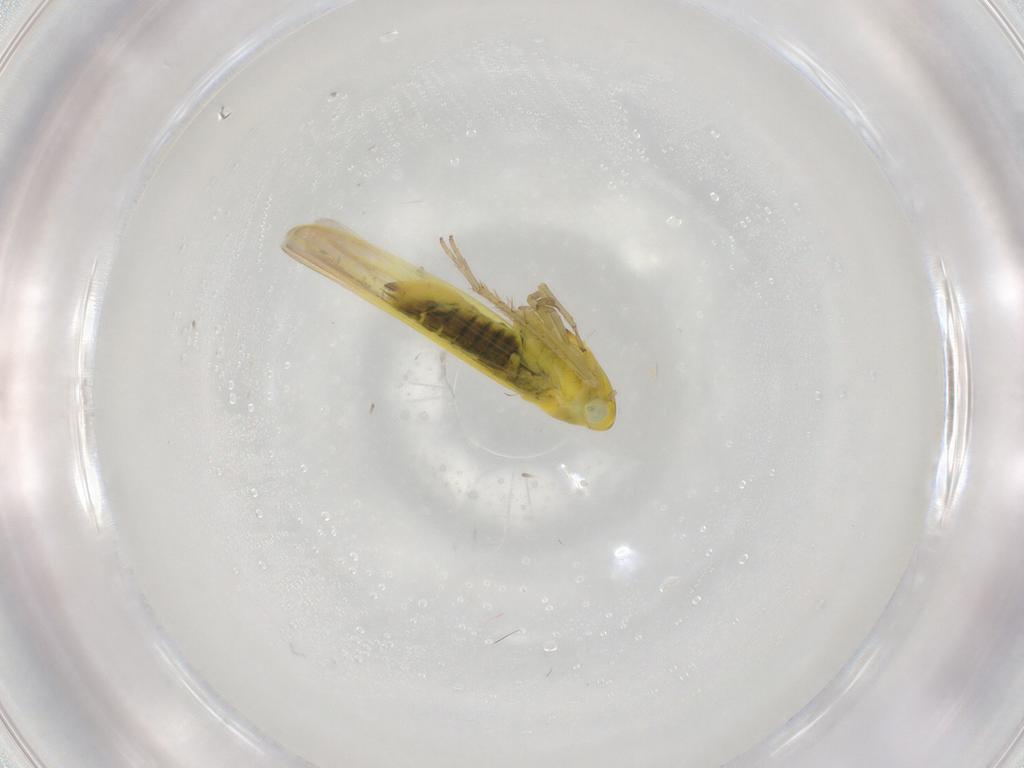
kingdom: Animalia
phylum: Arthropoda
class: Insecta
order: Hemiptera
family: Cicadellidae
